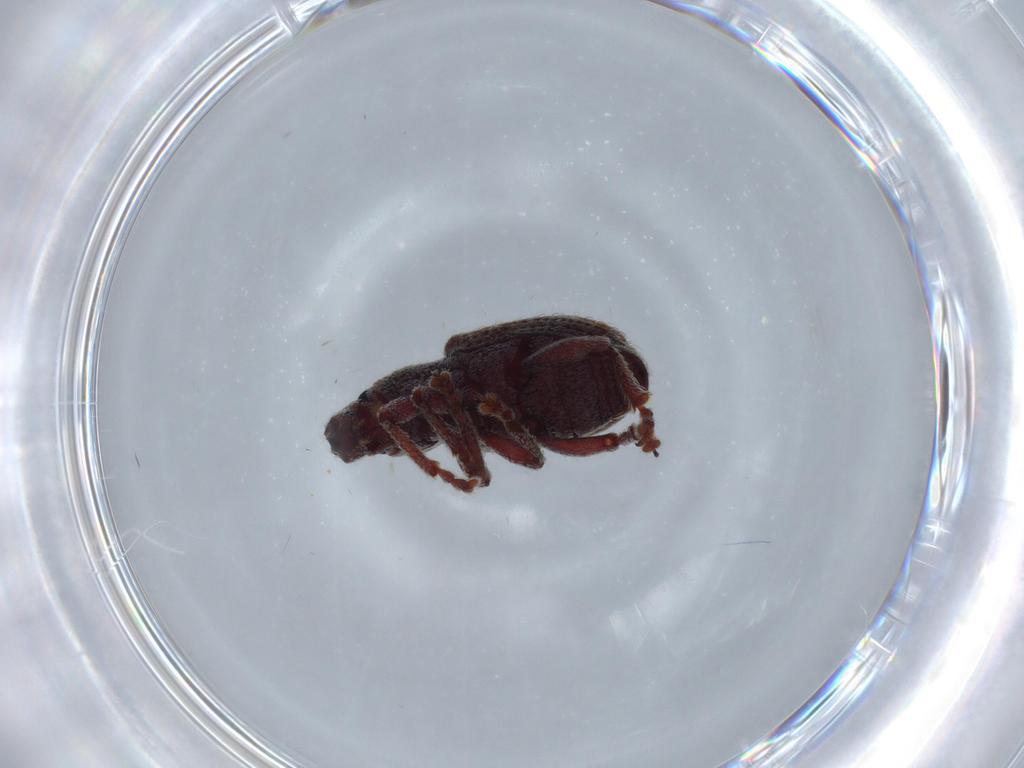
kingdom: Animalia
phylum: Arthropoda
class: Insecta
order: Coleoptera
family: Curculionidae
